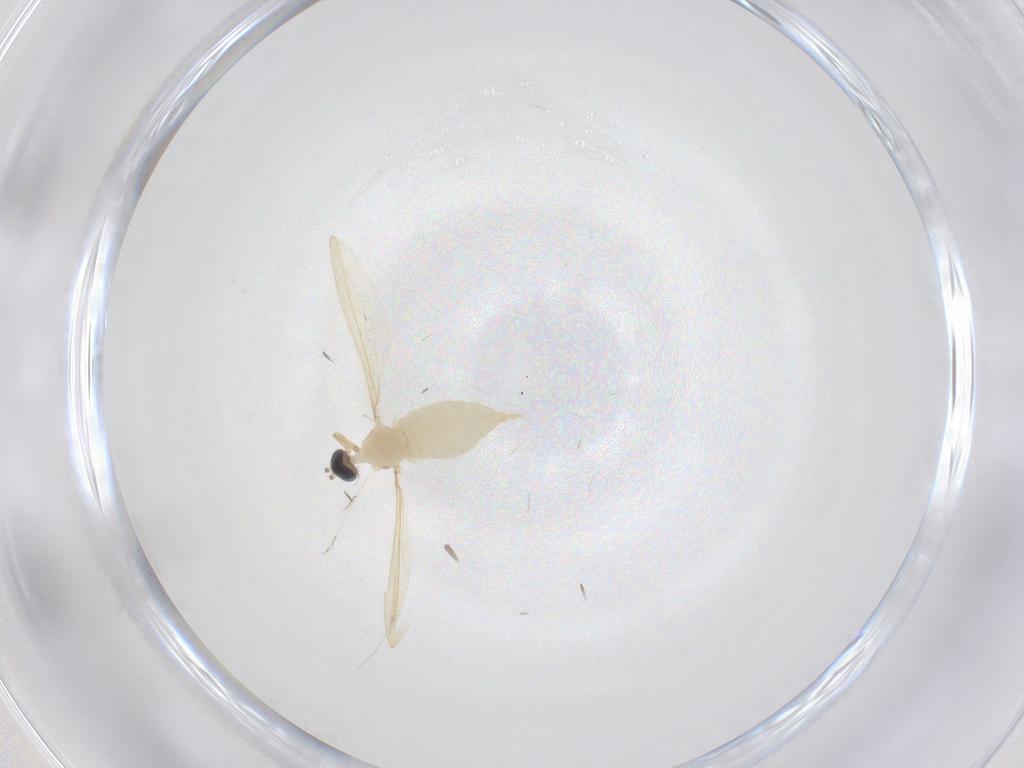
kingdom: Animalia
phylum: Arthropoda
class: Insecta
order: Diptera
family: Cecidomyiidae
